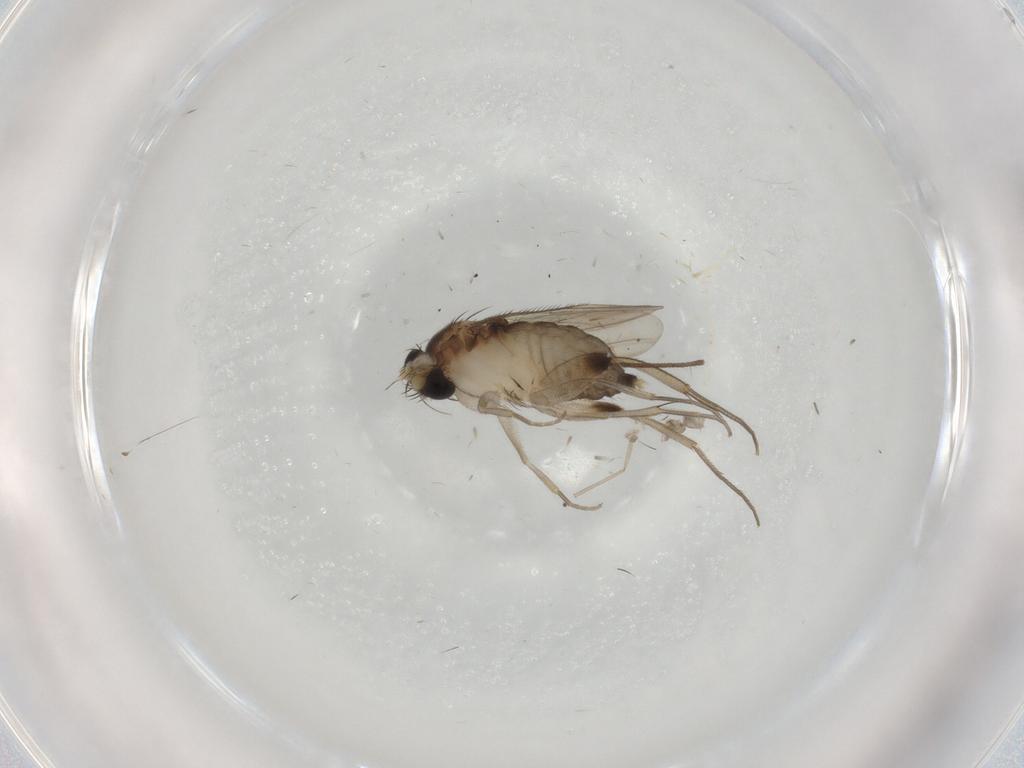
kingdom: Animalia
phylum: Arthropoda
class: Insecta
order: Diptera
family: Phoridae
